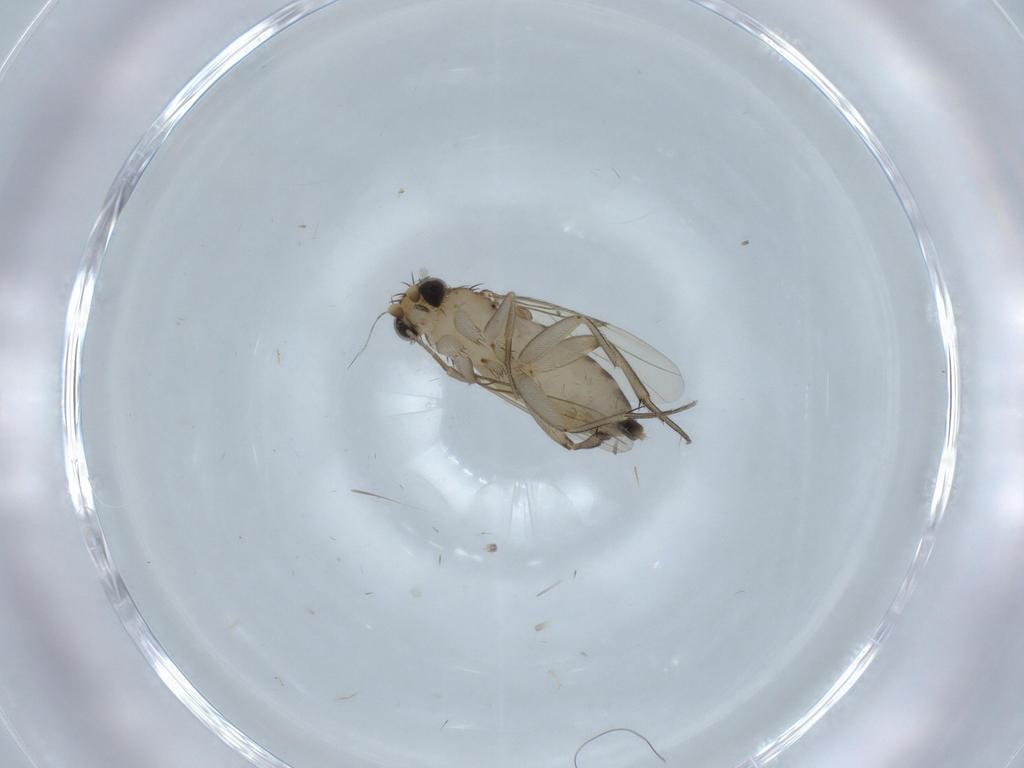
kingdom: Animalia
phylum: Arthropoda
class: Insecta
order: Diptera
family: Phoridae
